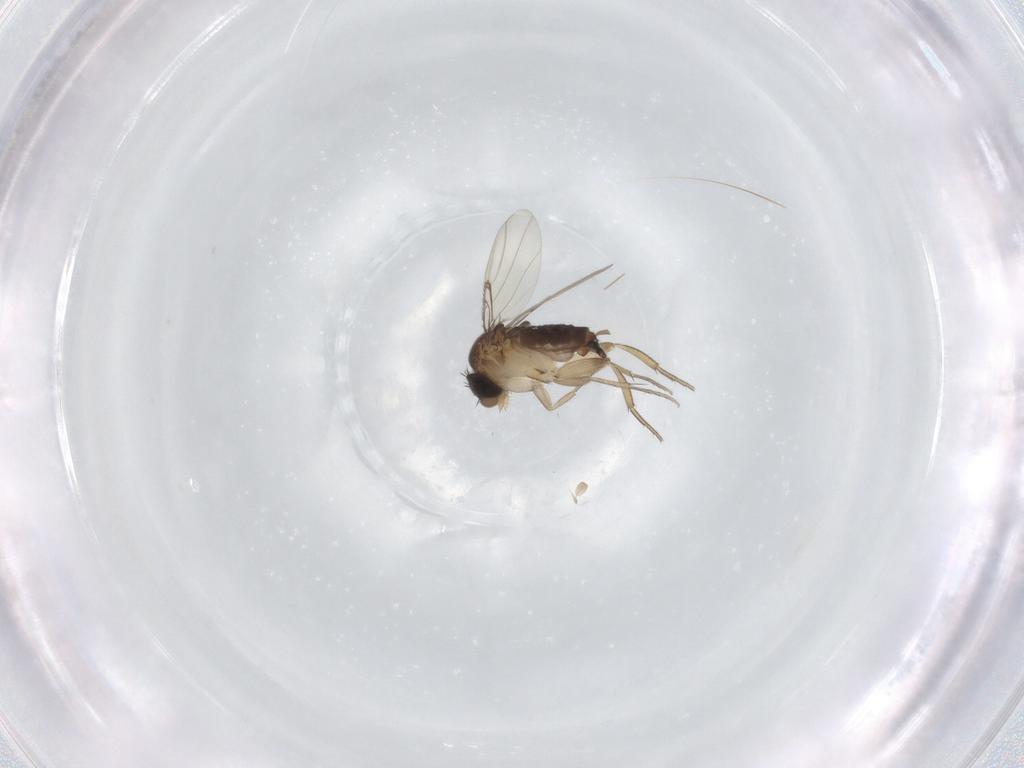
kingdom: Animalia
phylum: Arthropoda
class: Insecta
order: Diptera
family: Phoridae
